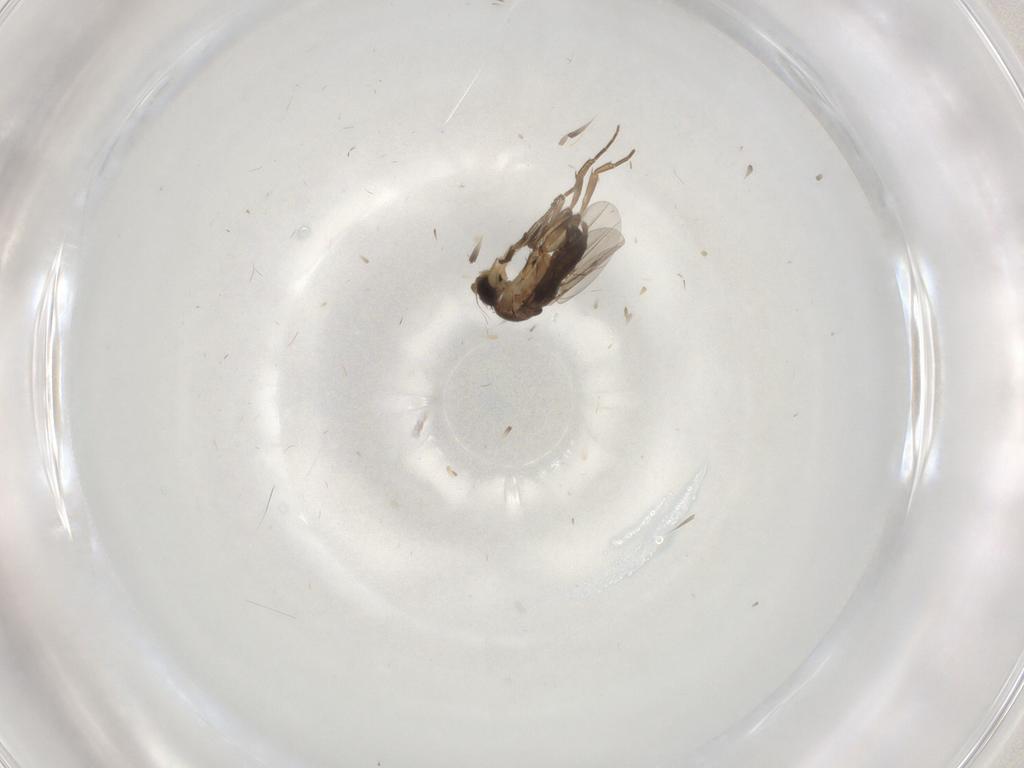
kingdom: Animalia
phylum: Arthropoda
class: Insecta
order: Diptera
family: Phoridae
